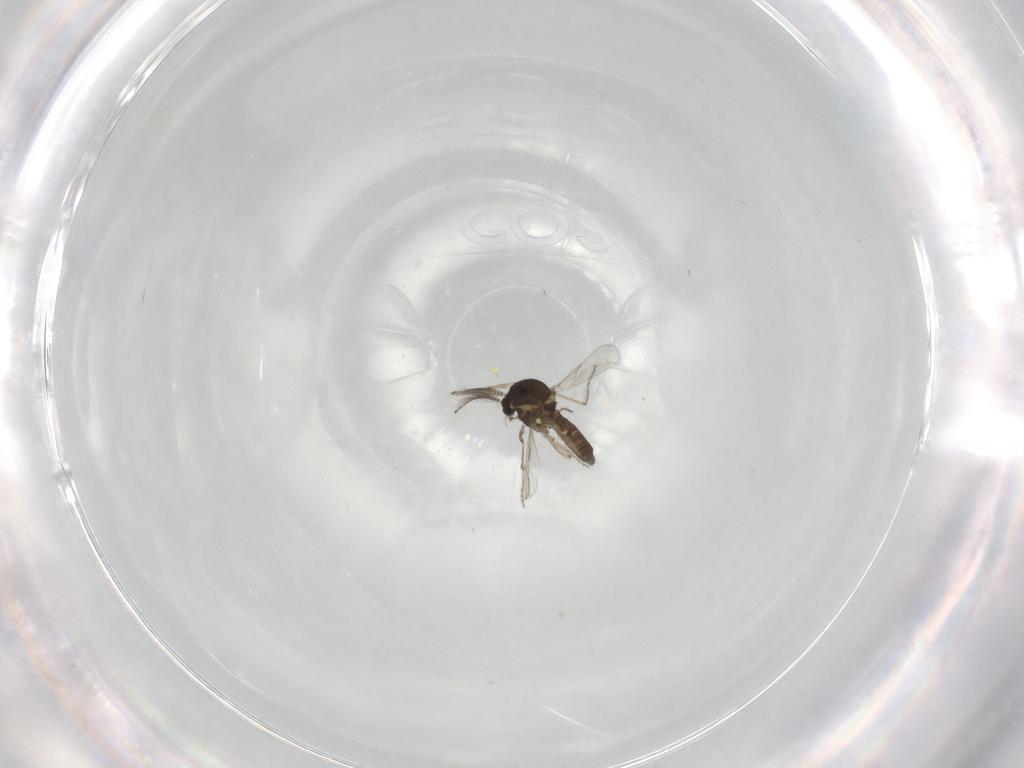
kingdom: Animalia
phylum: Arthropoda
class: Insecta
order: Diptera
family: Ceratopogonidae
